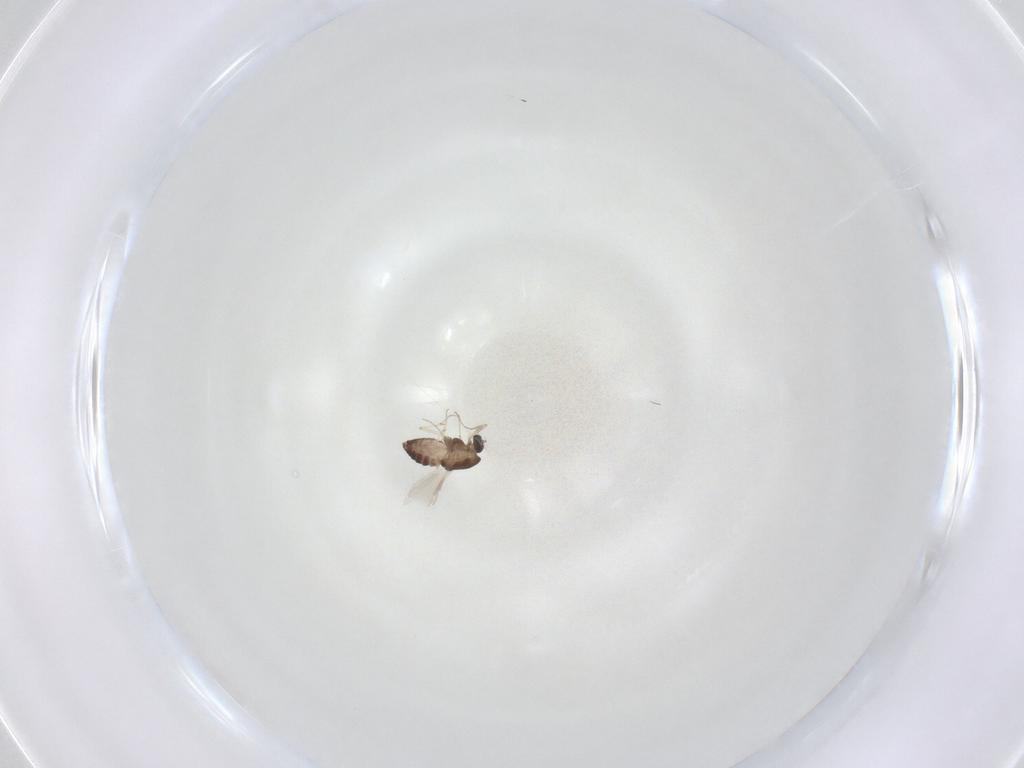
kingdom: Animalia
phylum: Arthropoda
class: Insecta
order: Diptera
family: Chironomidae
